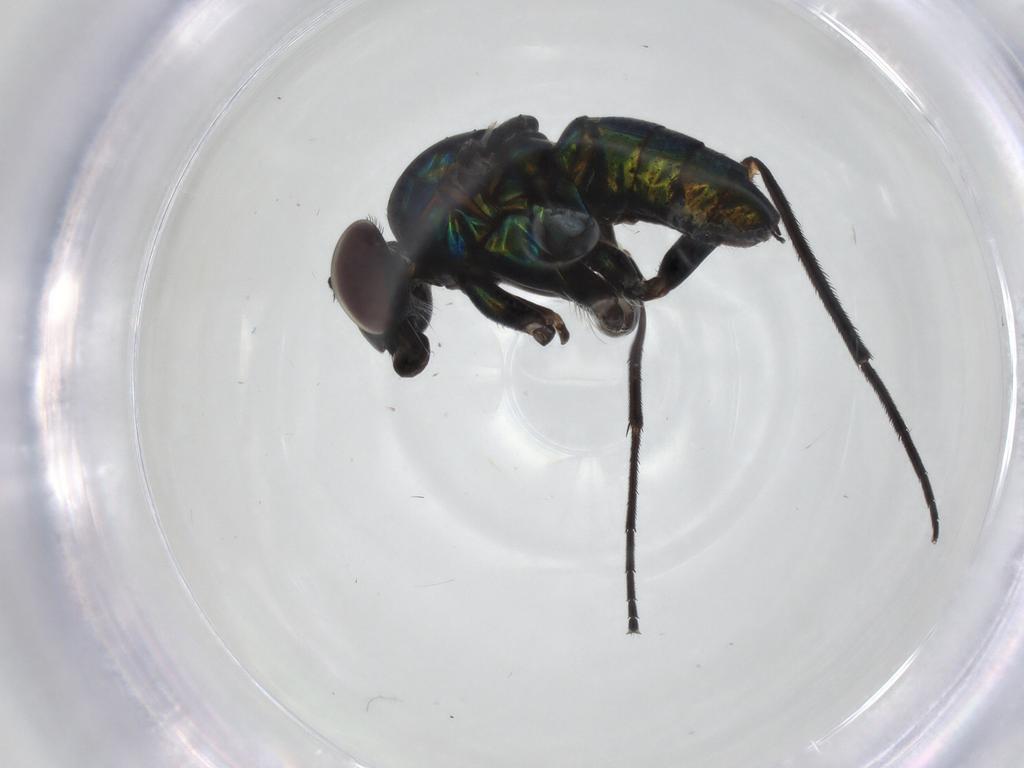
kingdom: Animalia
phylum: Arthropoda
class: Insecta
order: Diptera
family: Dolichopodidae
